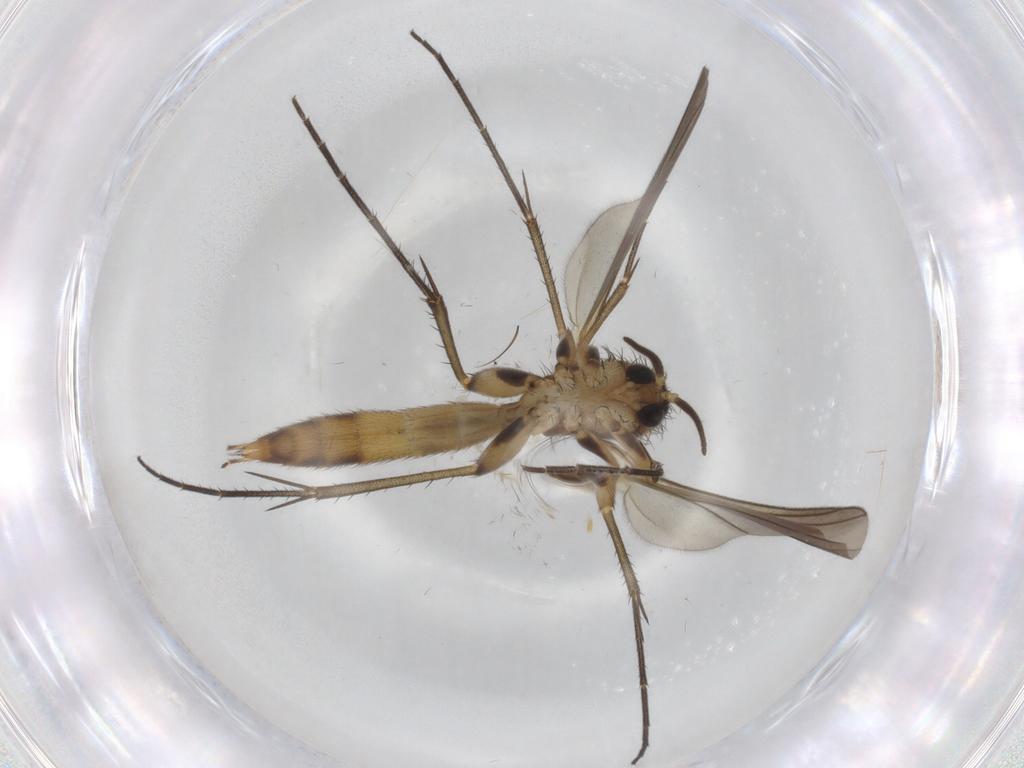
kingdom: Animalia
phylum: Arthropoda
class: Insecta
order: Diptera
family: Mycetophilidae
